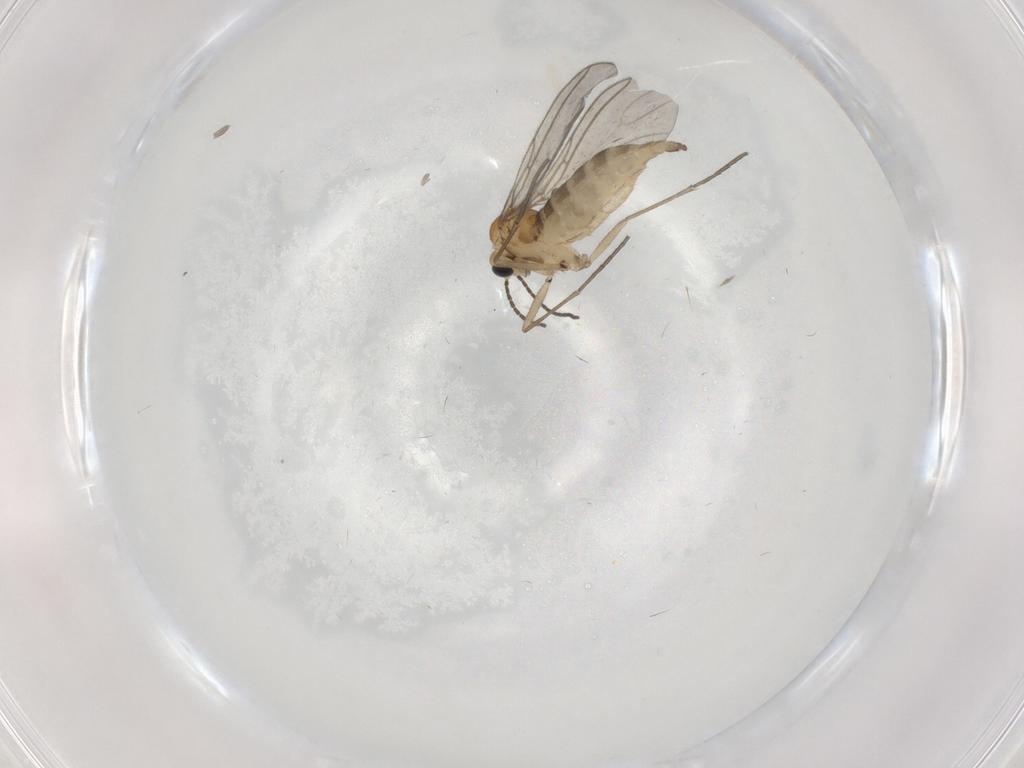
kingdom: Animalia
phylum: Arthropoda
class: Insecta
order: Diptera
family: Sciaridae
